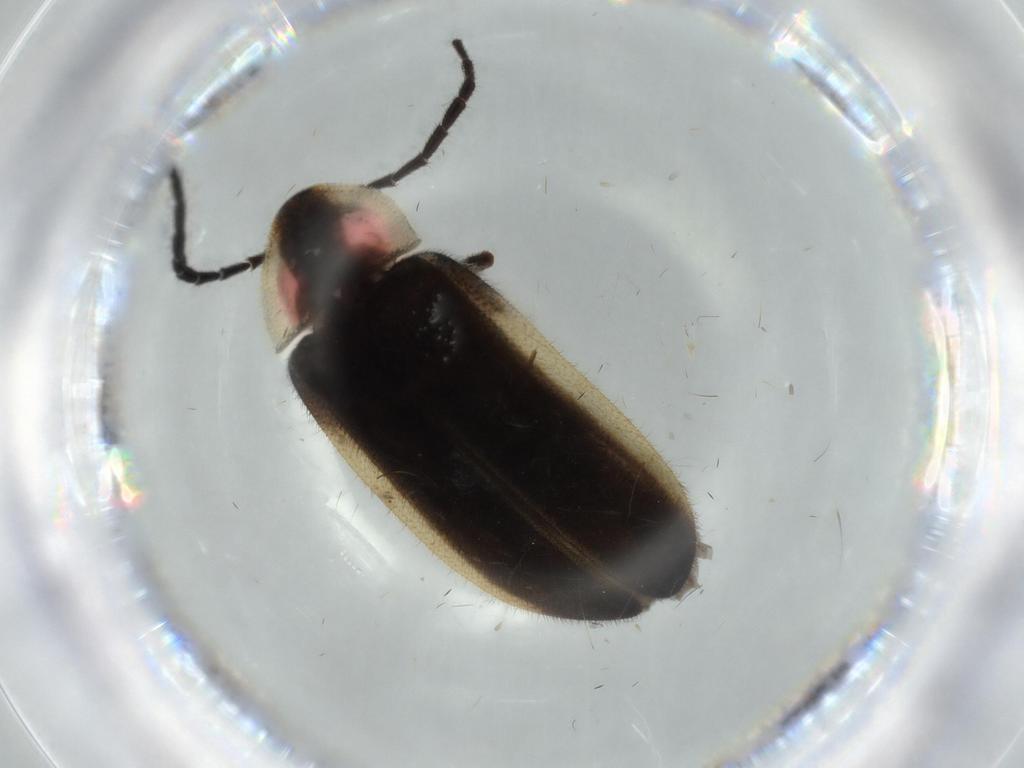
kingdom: Animalia
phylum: Arthropoda
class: Insecta
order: Coleoptera
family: Lampyridae
